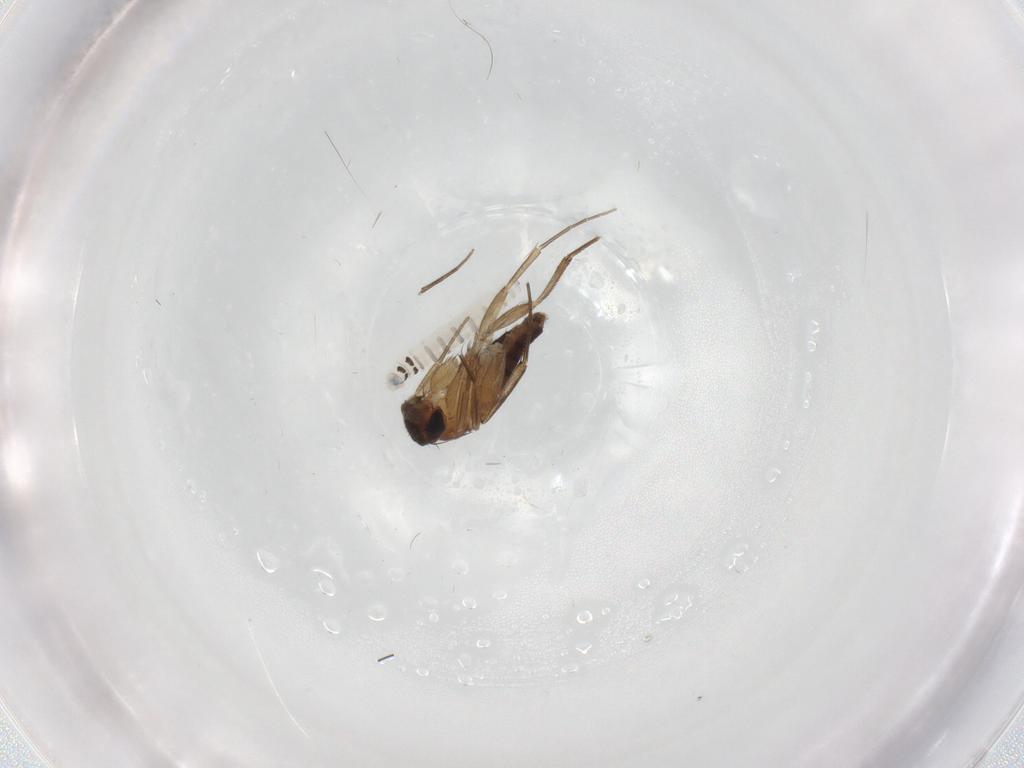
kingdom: Animalia
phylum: Arthropoda
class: Insecta
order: Diptera
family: Phoridae
